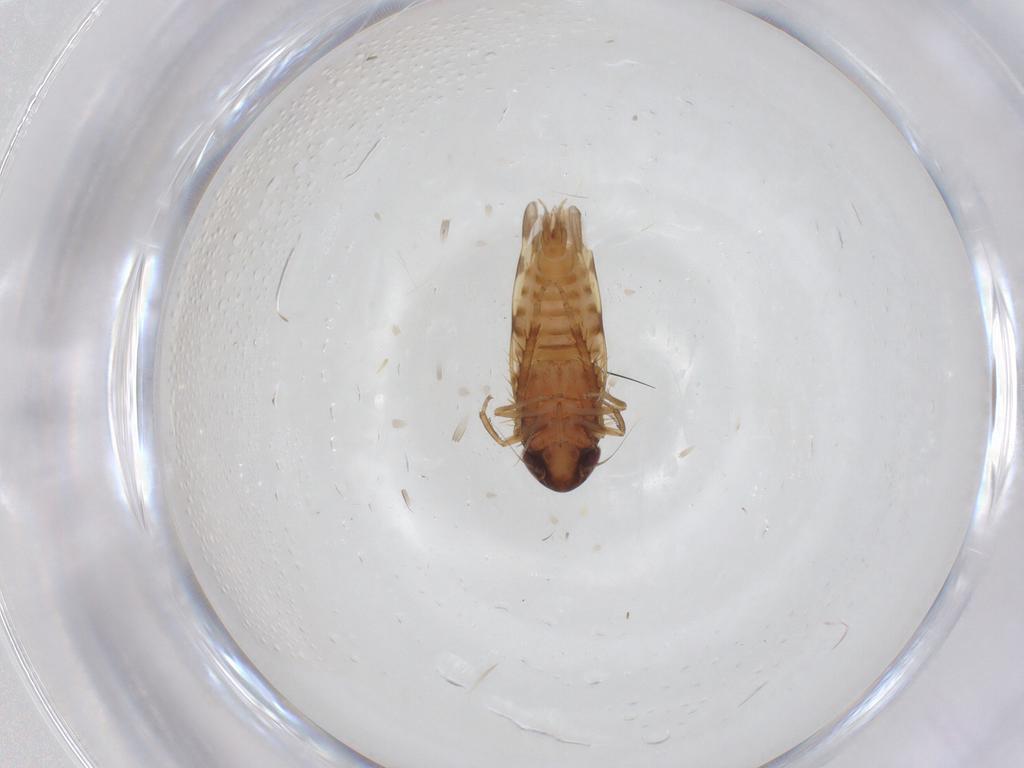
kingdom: Animalia
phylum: Arthropoda
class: Insecta
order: Hemiptera
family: Cicadellidae
